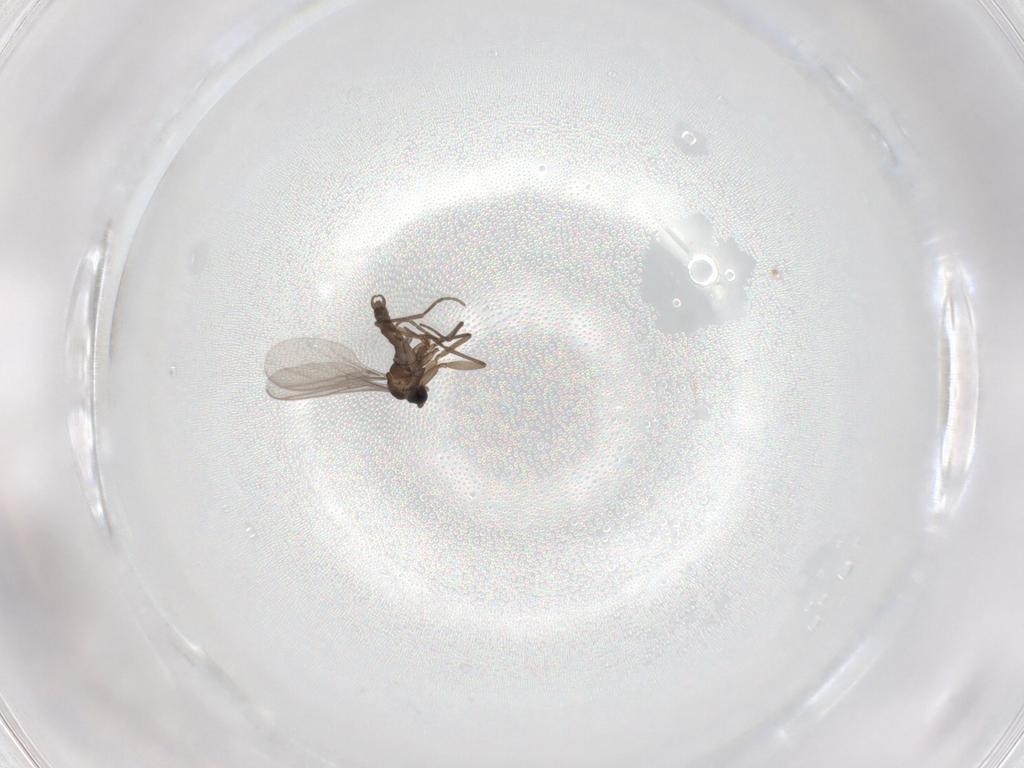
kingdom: Animalia
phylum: Arthropoda
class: Insecta
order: Diptera
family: Sciaridae
